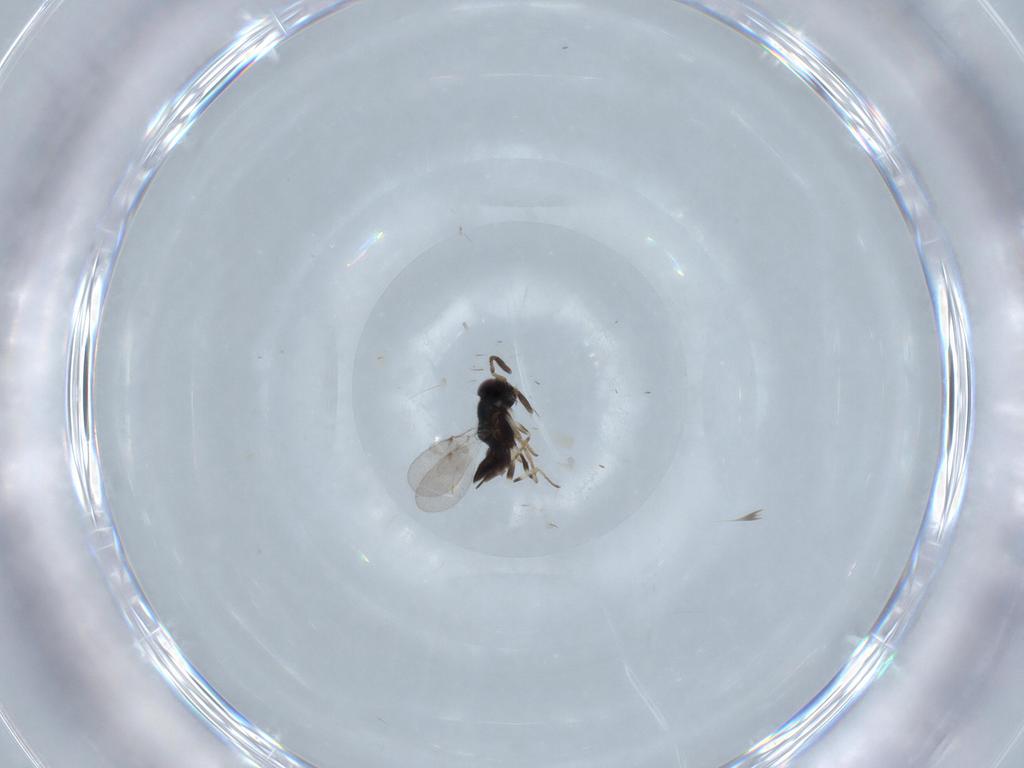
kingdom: Animalia
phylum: Arthropoda
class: Insecta
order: Hymenoptera
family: Encyrtidae
